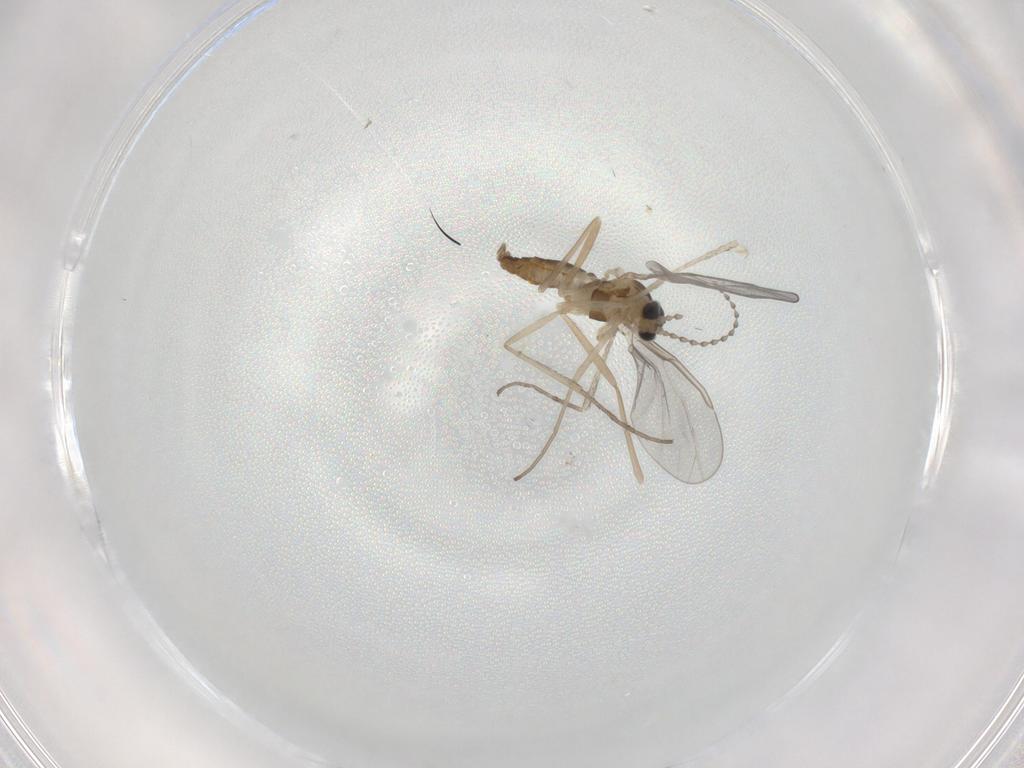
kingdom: Animalia
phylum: Arthropoda
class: Insecta
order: Diptera
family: Cecidomyiidae
